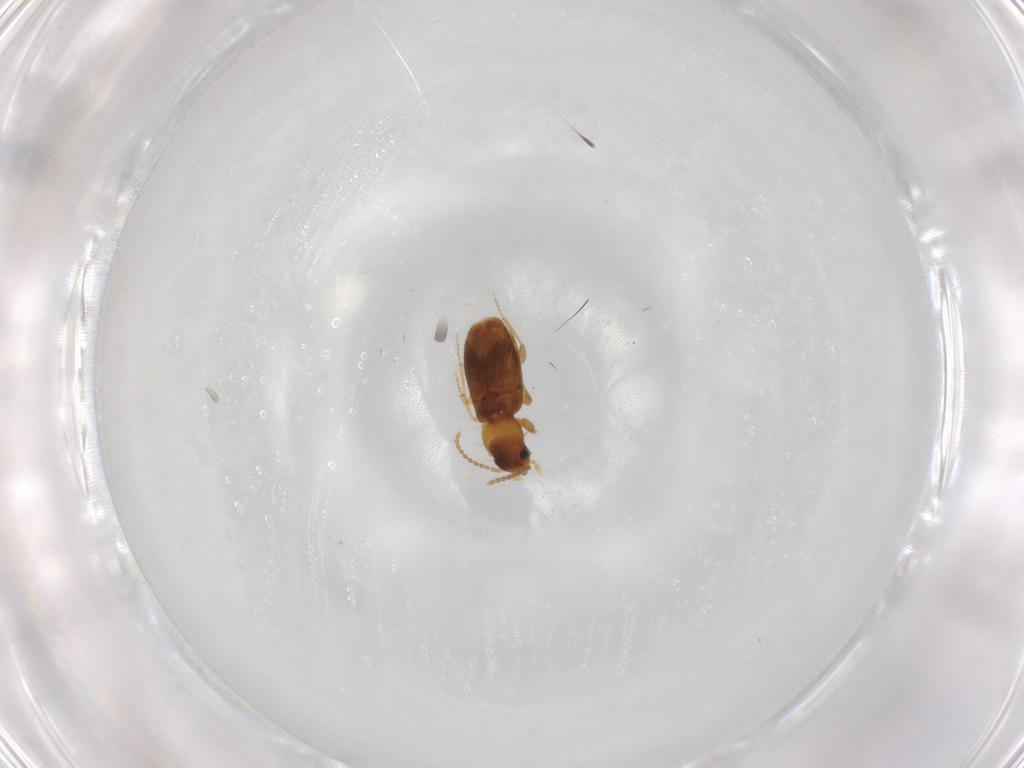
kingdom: Animalia
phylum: Arthropoda
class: Insecta
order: Coleoptera
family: Carabidae
